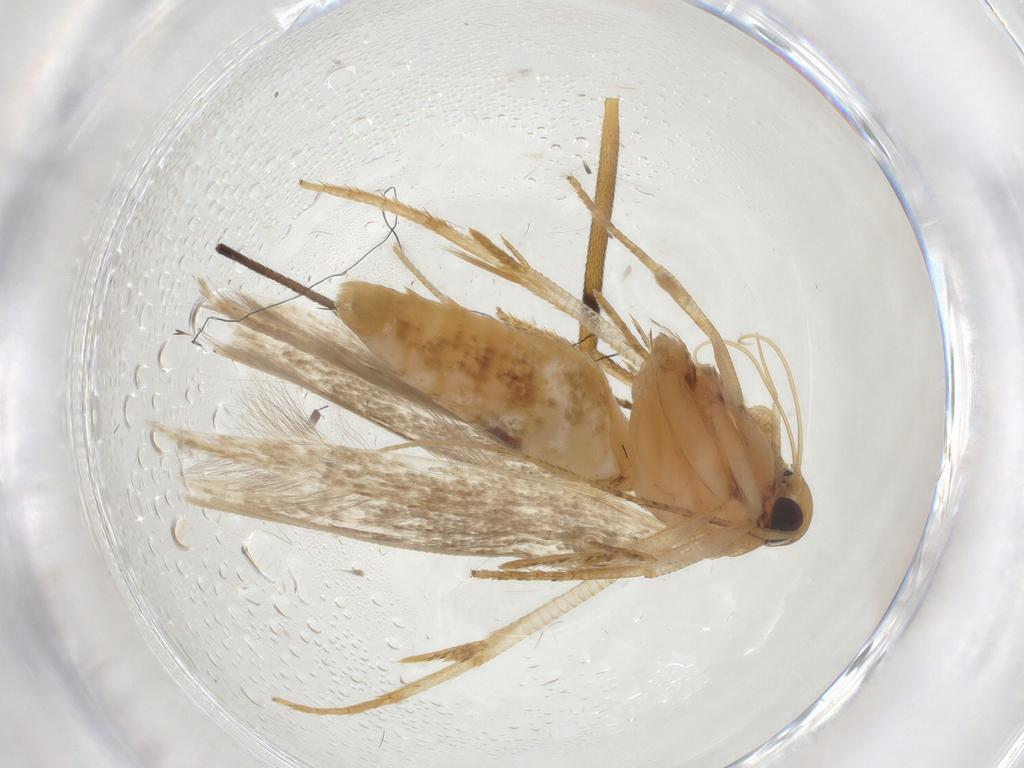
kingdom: Animalia
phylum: Arthropoda
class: Insecta
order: Lepidoptera
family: Cosmopterigidae
